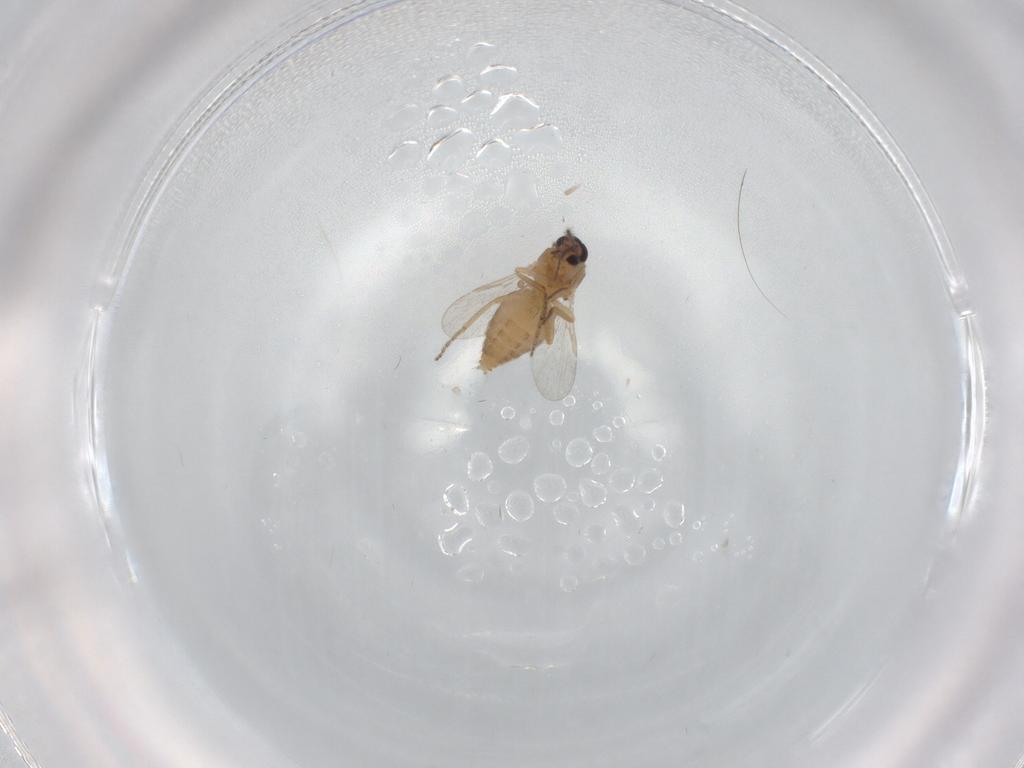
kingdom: Animalia
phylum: Arthropoda
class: Insecta
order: Diptera
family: Ceratopogonidae
